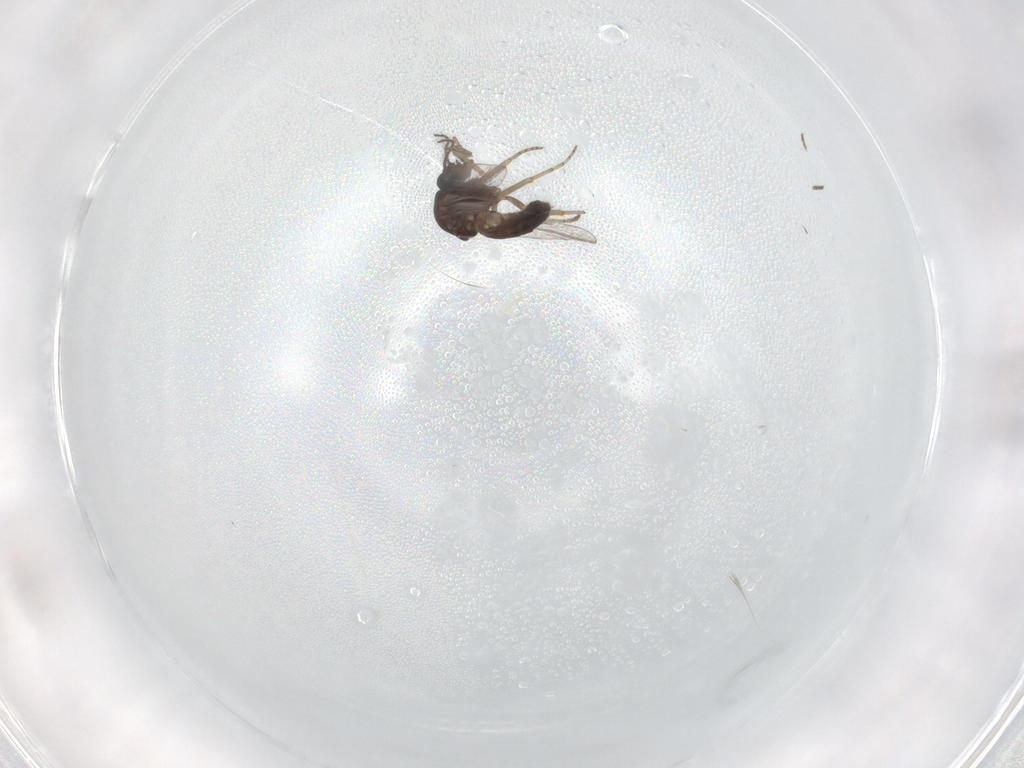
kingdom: Animalia
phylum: Arthropoda
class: Insecta
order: Diptera
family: Ceratopogonidae
